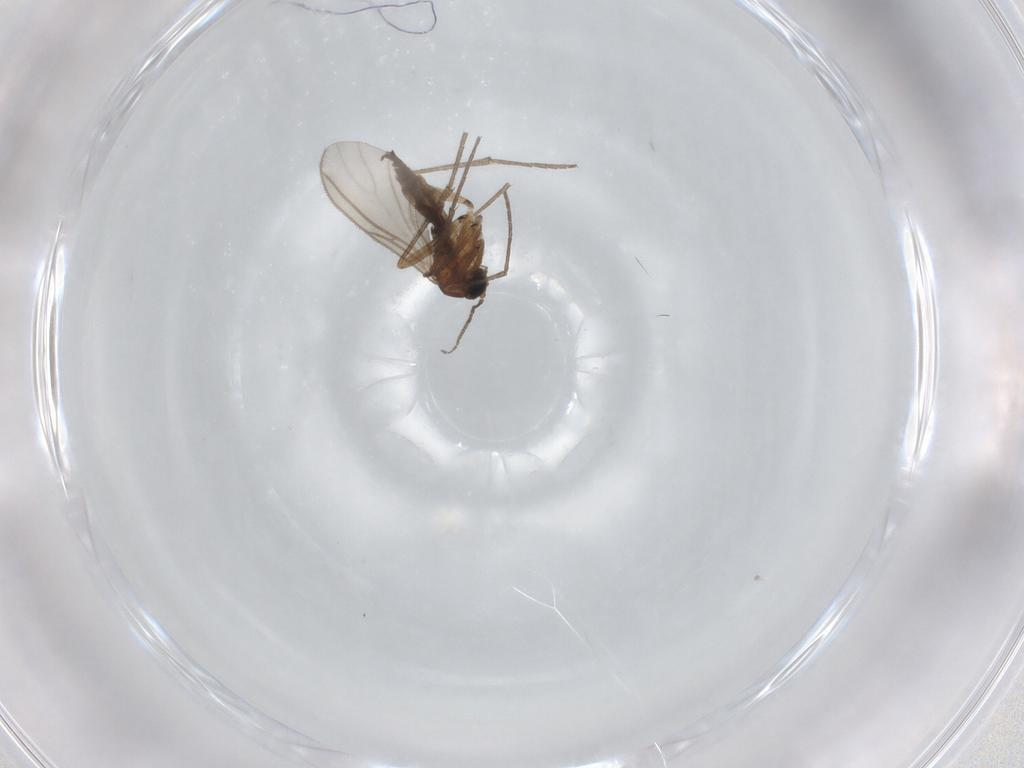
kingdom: Animalia
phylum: Arthropoda
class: Insecta
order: Diptera
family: Sciaridae
